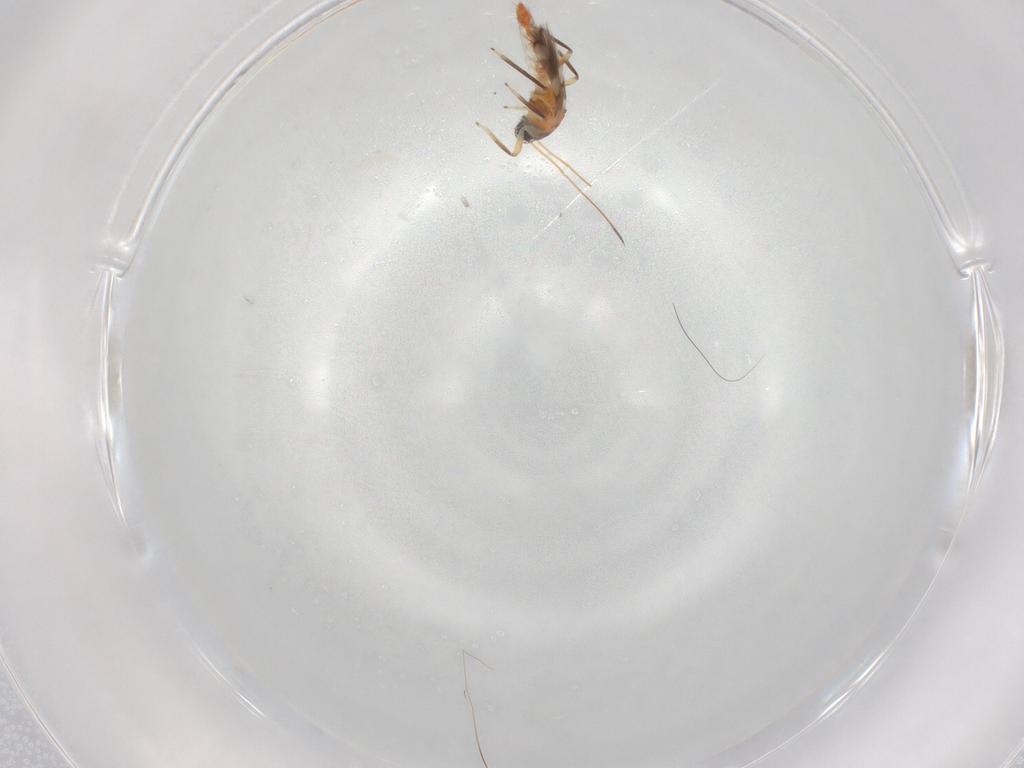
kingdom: Animalia
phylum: Arthropoda
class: Insecta
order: Thysanoptera
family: Aeolothripidae
